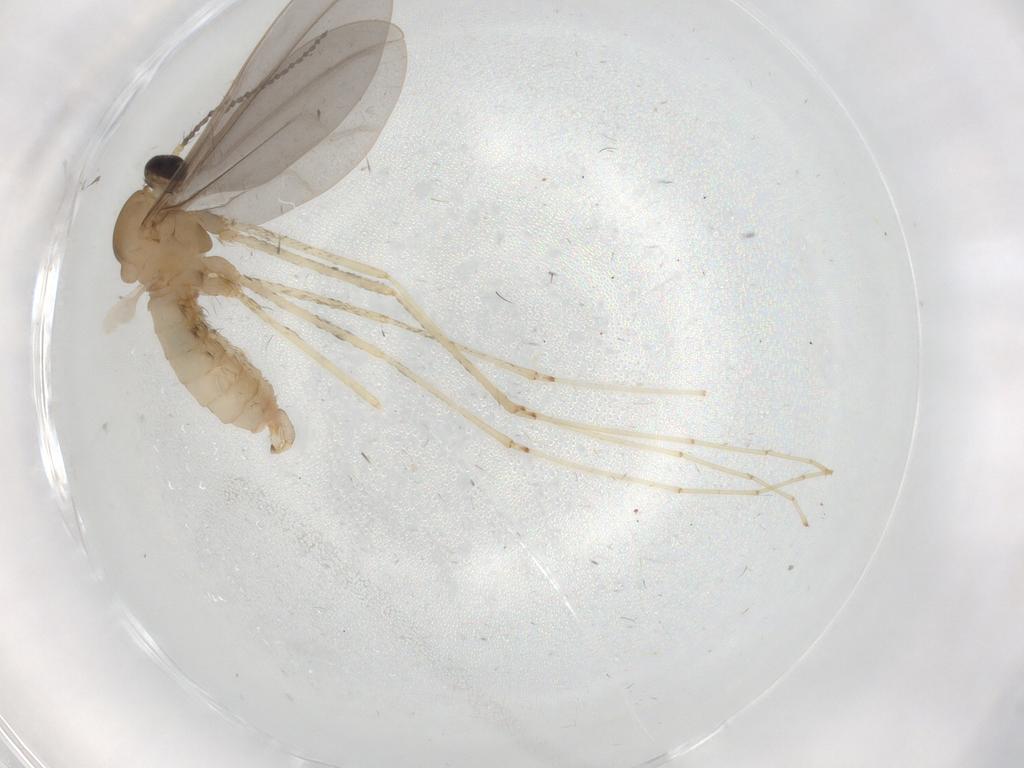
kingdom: Animalia
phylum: Arthropoda
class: Insecta
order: Diptera
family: Cecidomyiidae
